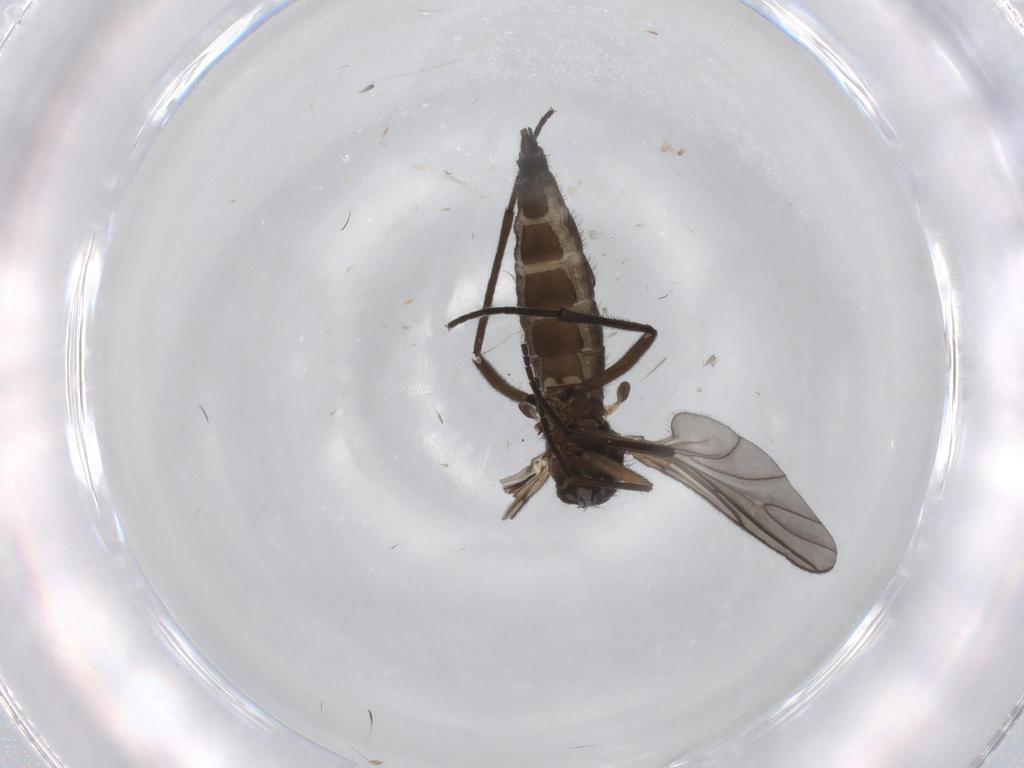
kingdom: Animalia
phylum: Arthropoda
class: Insecta
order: Diptera
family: Sciaridae
